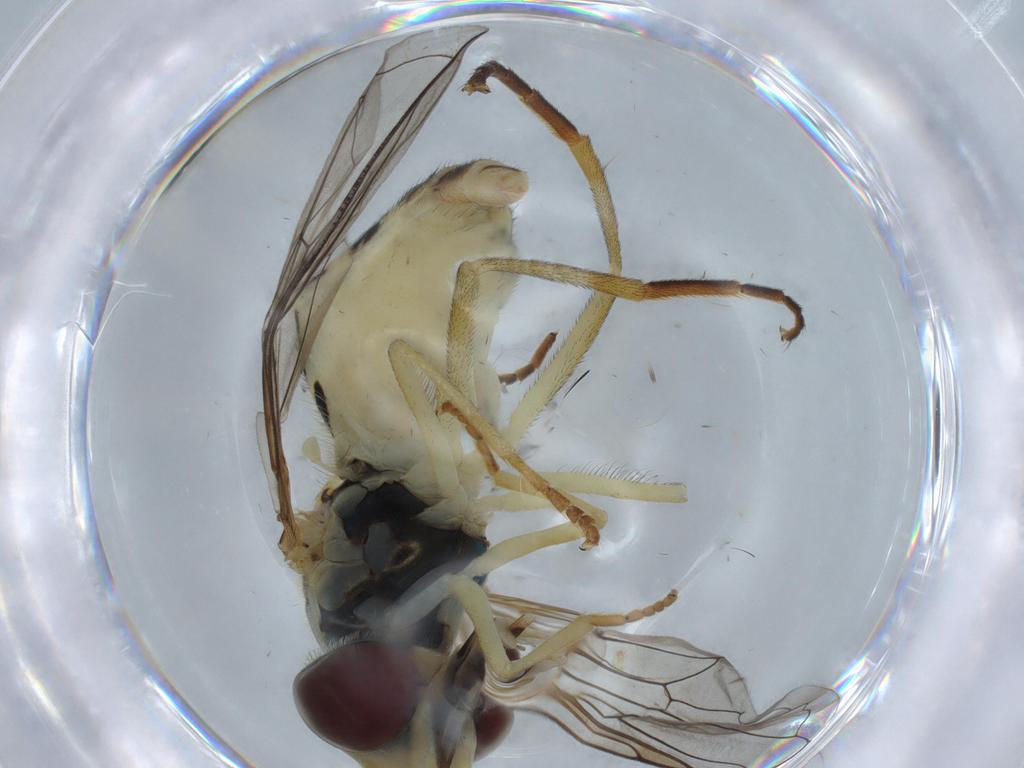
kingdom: Animalia
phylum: Arthropoda
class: Insecta
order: Diptera
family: Syrphidae
